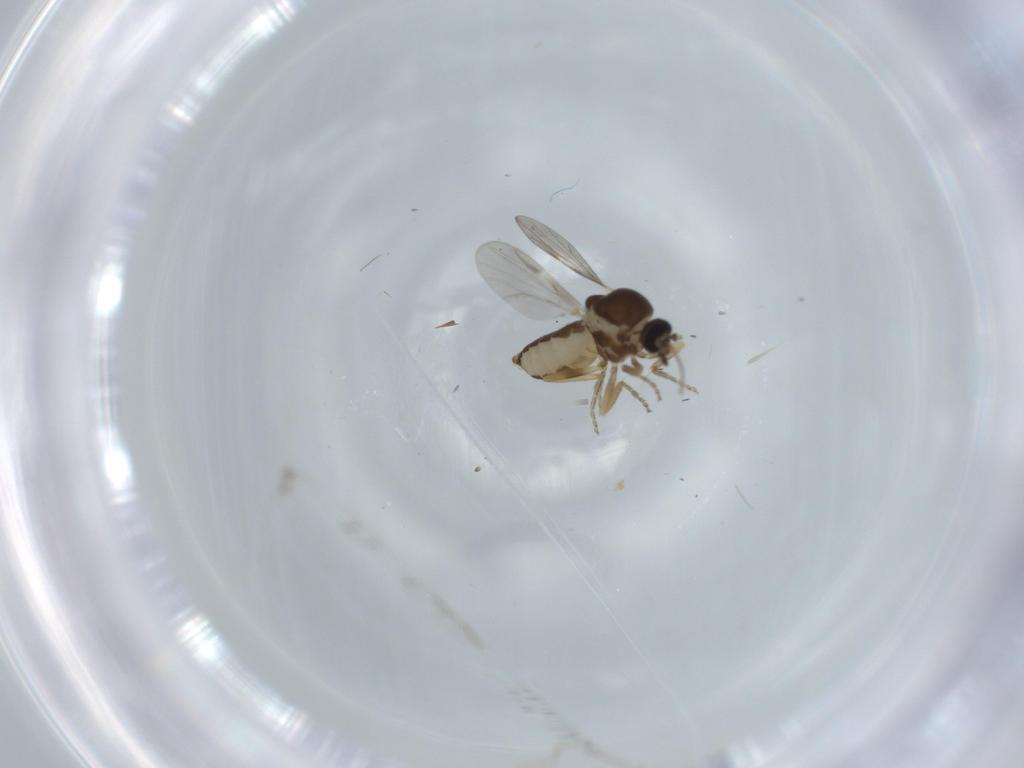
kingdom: Animalia
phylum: Arthropoda
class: Insecta
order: Diptera
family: Ceratopogonidae
